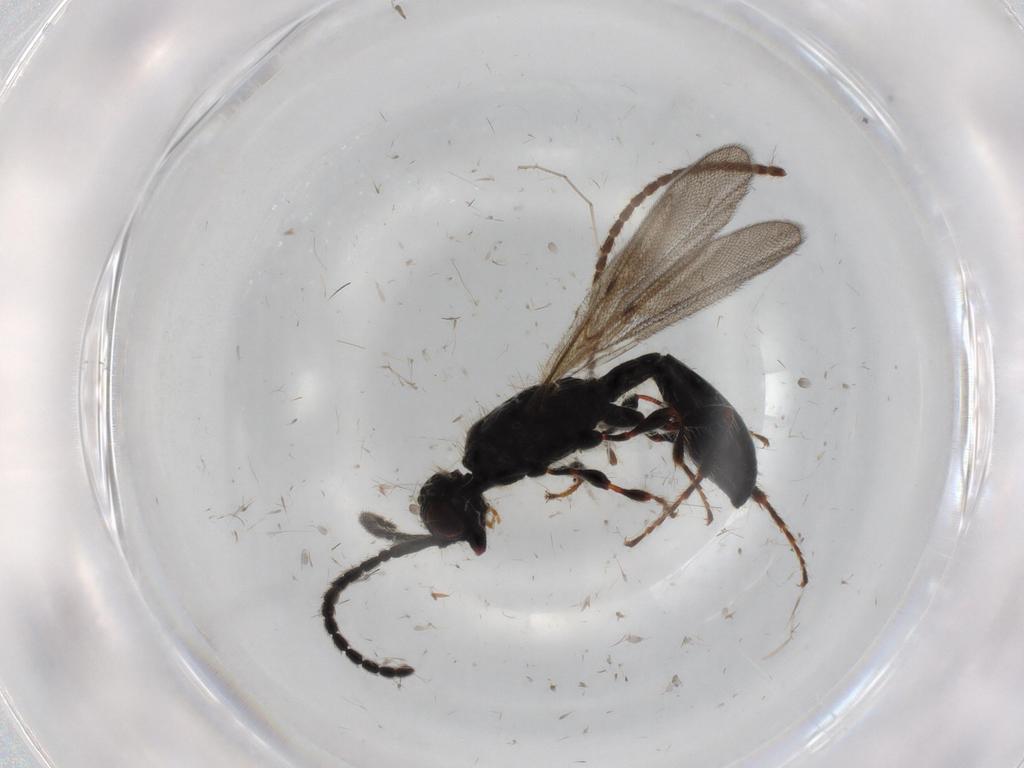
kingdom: Animalia
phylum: Arthropoda
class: Insecta
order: Hymenoptera
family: Diapriidae
